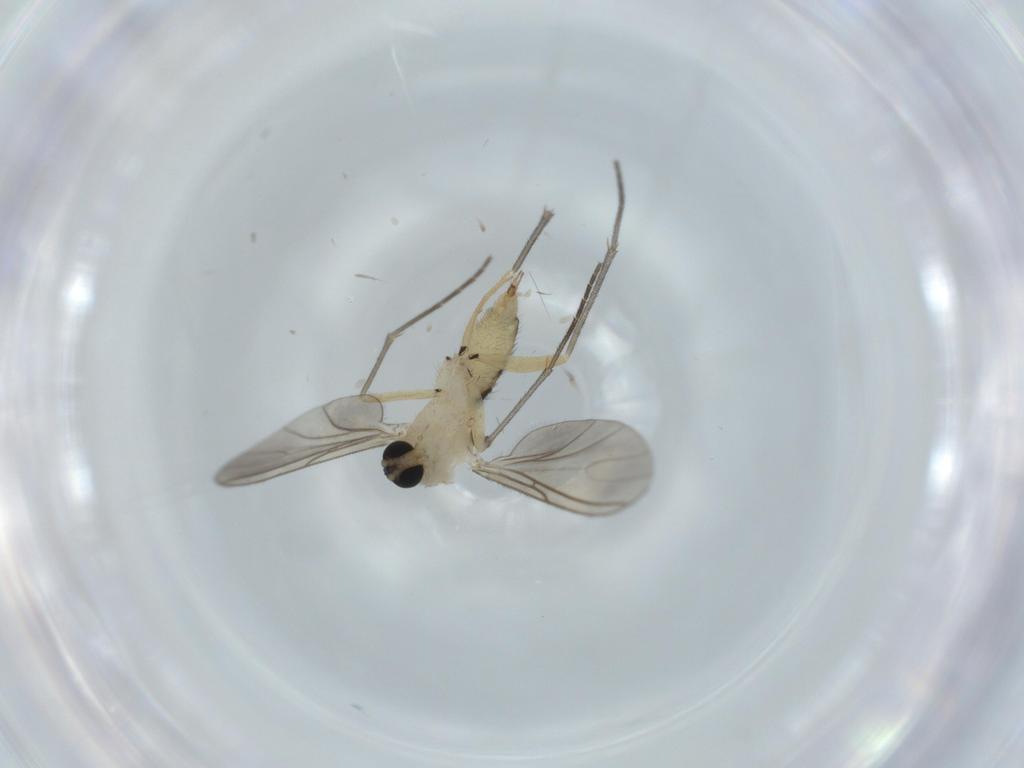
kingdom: Animalia
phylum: Arthropoda
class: Insecta
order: Diptera
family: Sciaridae
